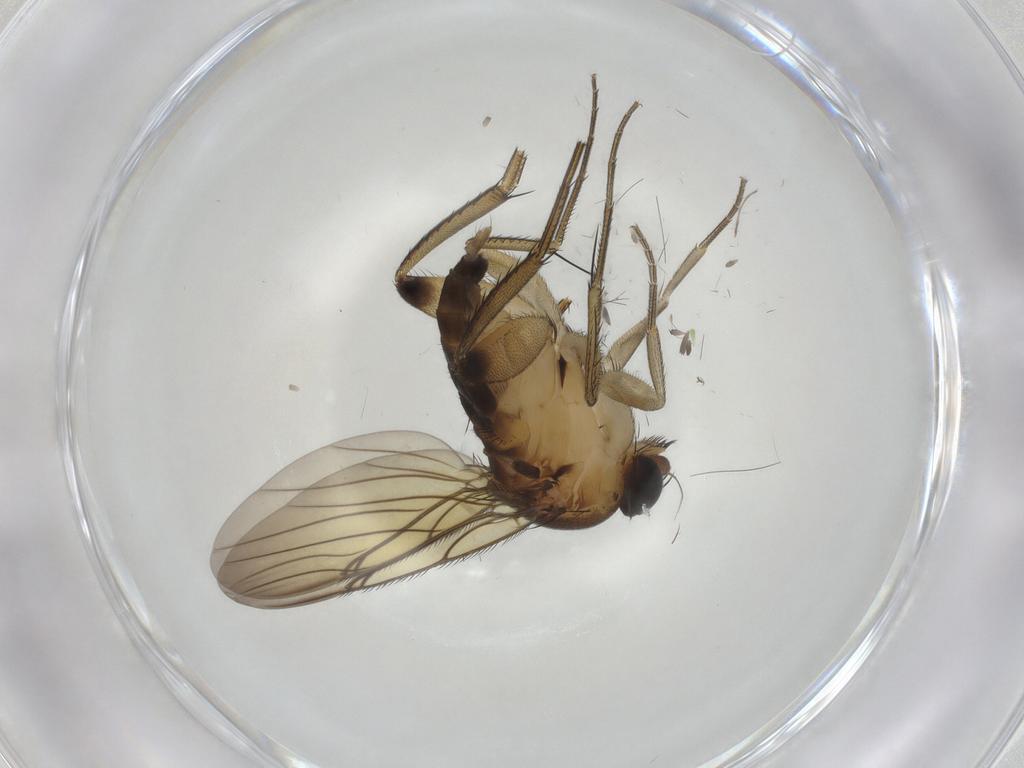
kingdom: Animalia
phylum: Arthropoda
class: Insecta
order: Diptera
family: Phoridae
